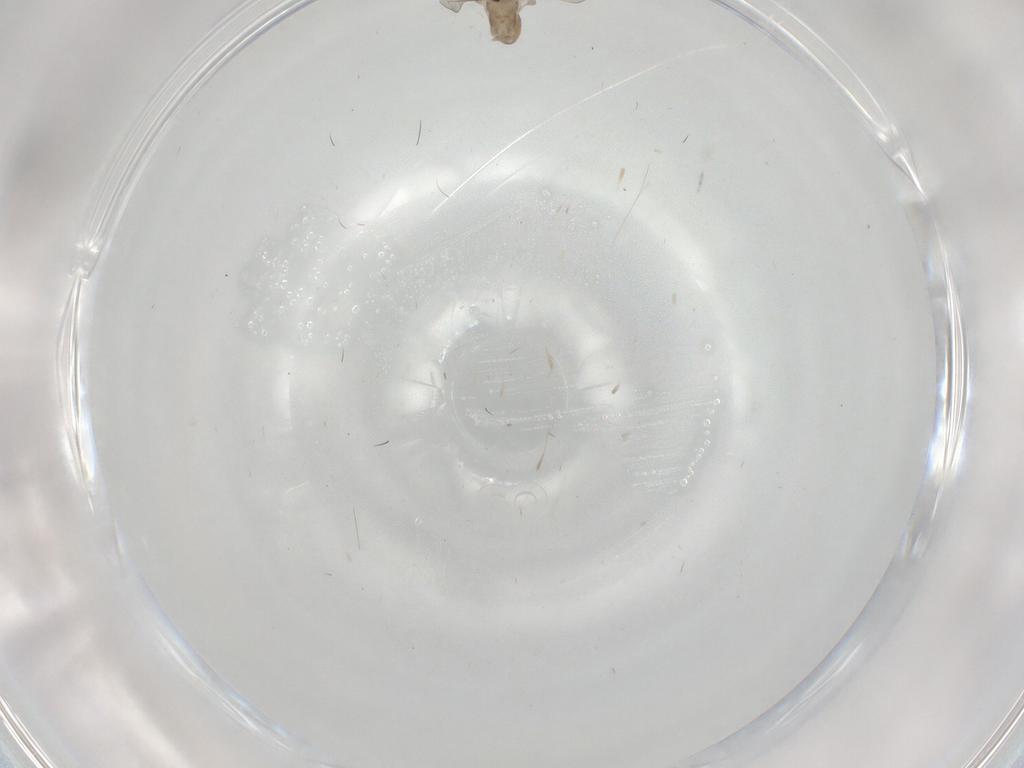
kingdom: Animalia
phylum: Arthropoda
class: Insecta
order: Diptera
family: Cecidomyiidae
